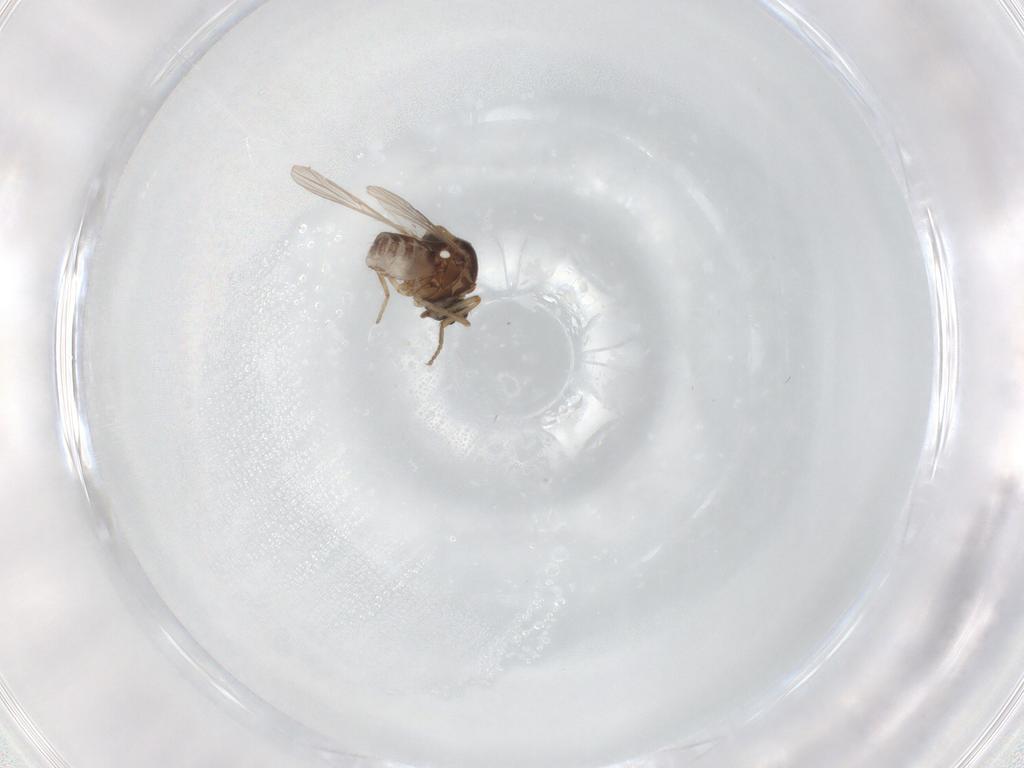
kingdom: Animalia
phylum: Arthropoda
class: Insecta
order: Diptera
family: Ceratopogonidae
